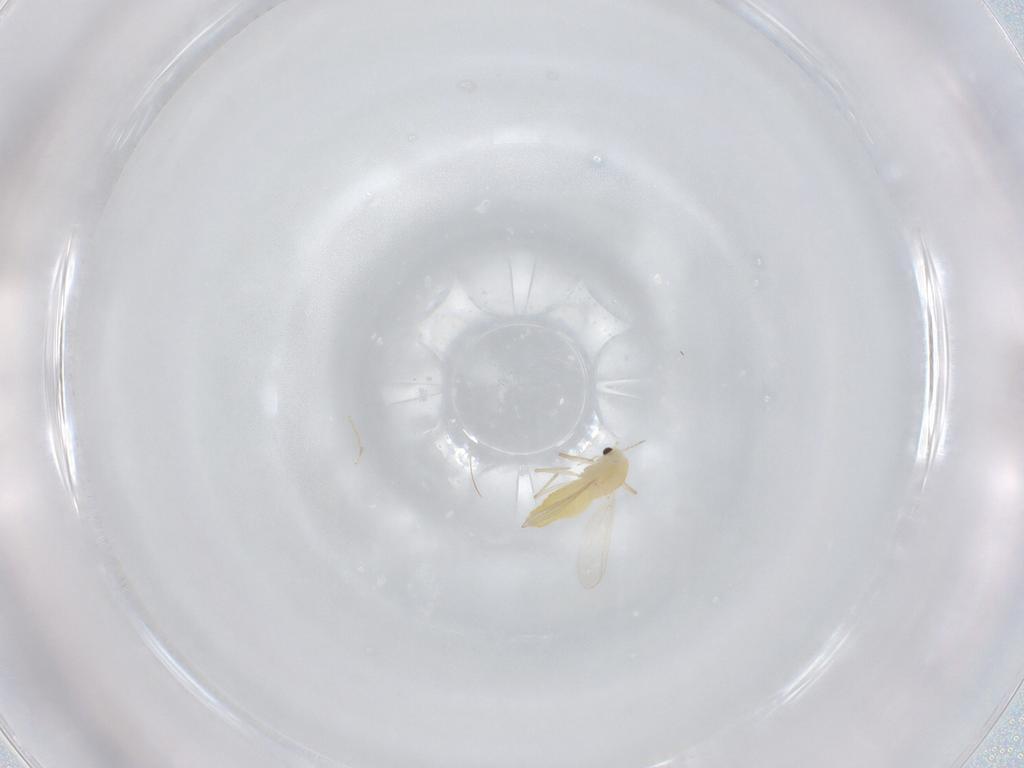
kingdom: Animalia
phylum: Arthropoda
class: Insecta
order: Diptera
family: Chironomidae
